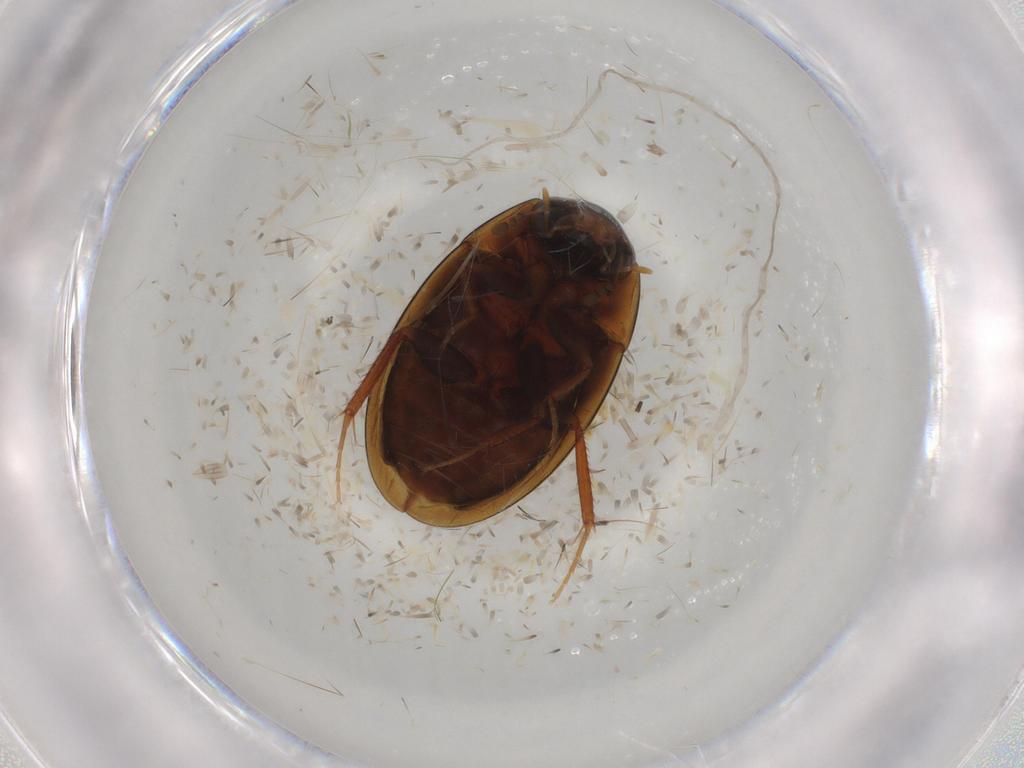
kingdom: Animalia
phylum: Arthropoda
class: Insecta
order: Coleoptera
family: Hydrophilidae
